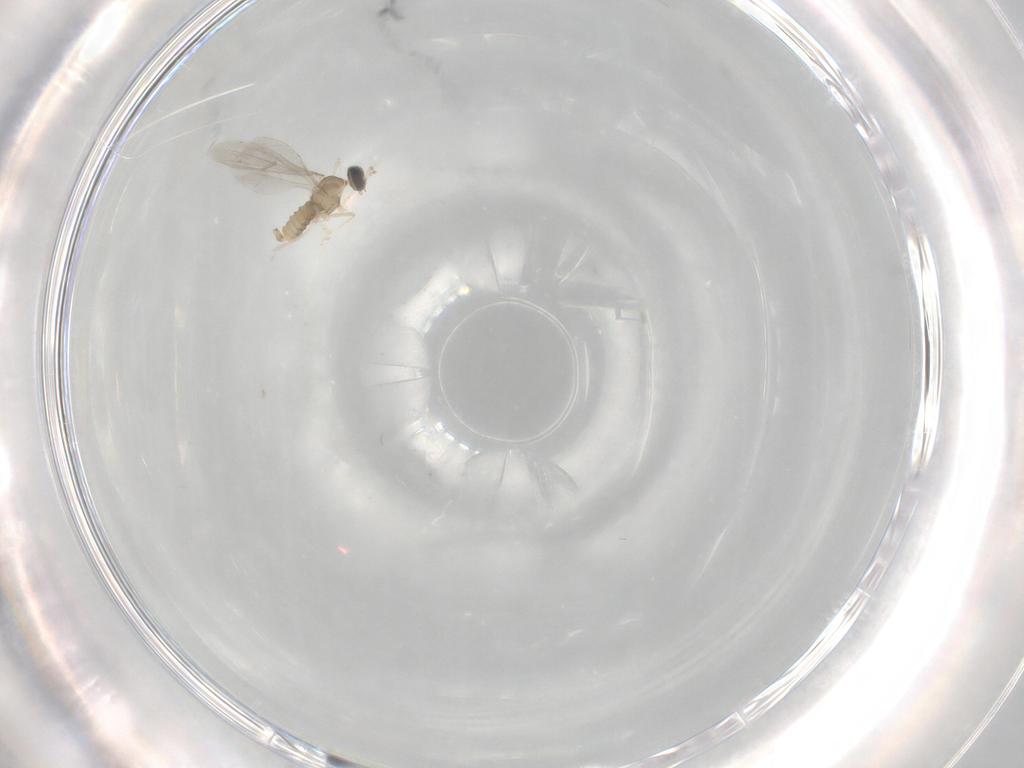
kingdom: Animalia
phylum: Arthropoda
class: Insecta
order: Diptera
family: Cecidomyiidae
